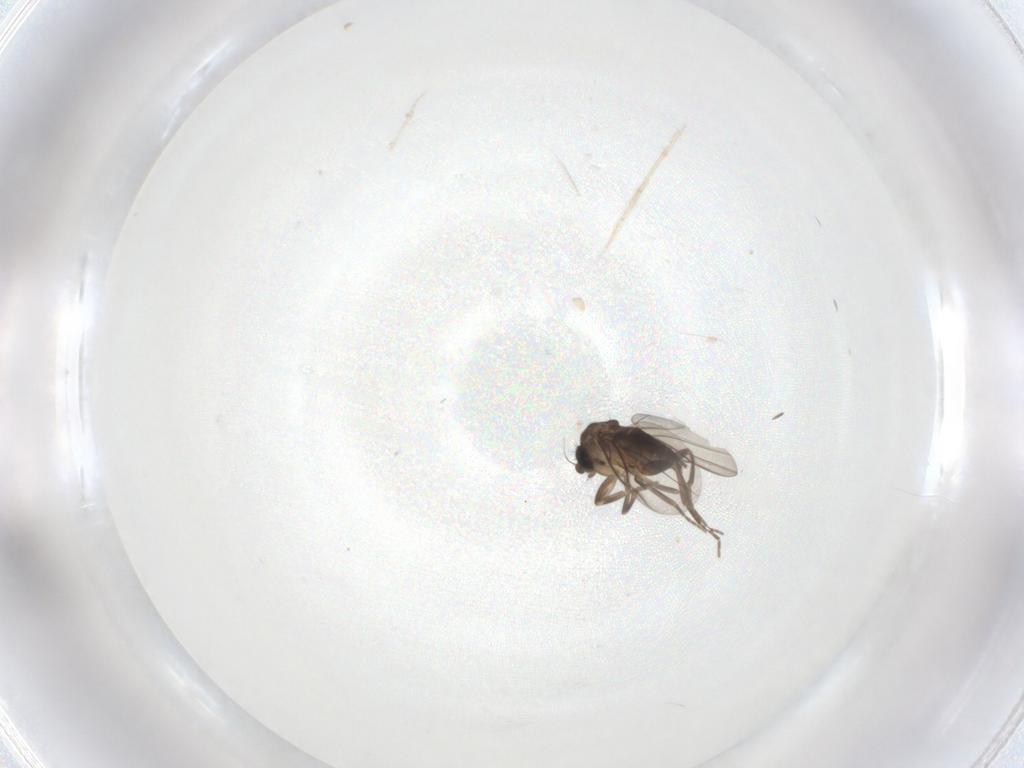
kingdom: Animalia
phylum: Arthropoda
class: Insecta
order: Diptera
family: Phoridae
